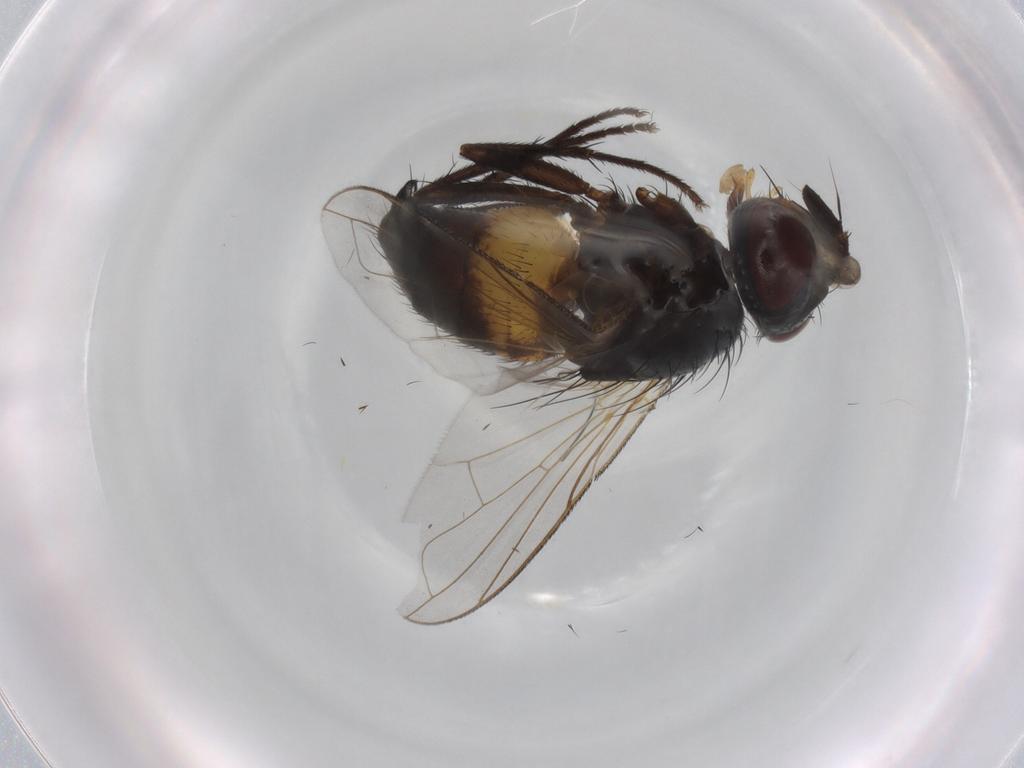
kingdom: Animalia
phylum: Arthropoda
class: Insecta
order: Diptera
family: Tachinidae
